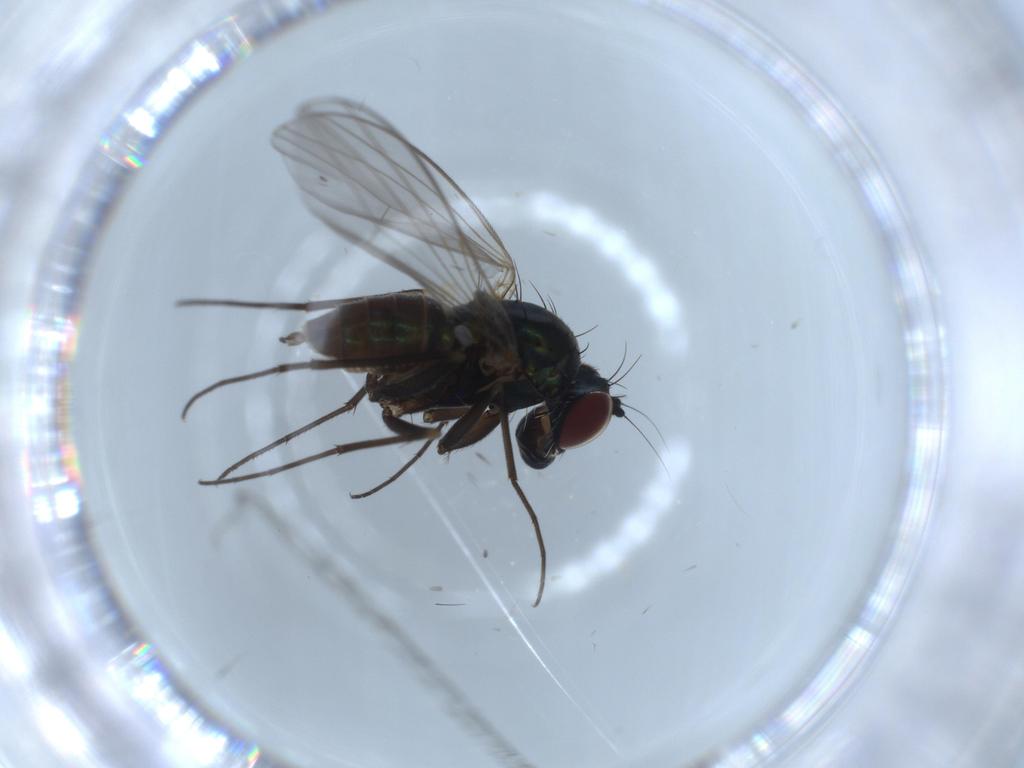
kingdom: Animalia
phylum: Arthropoda
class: Insecta
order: Diptera
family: Dolichopodidae
